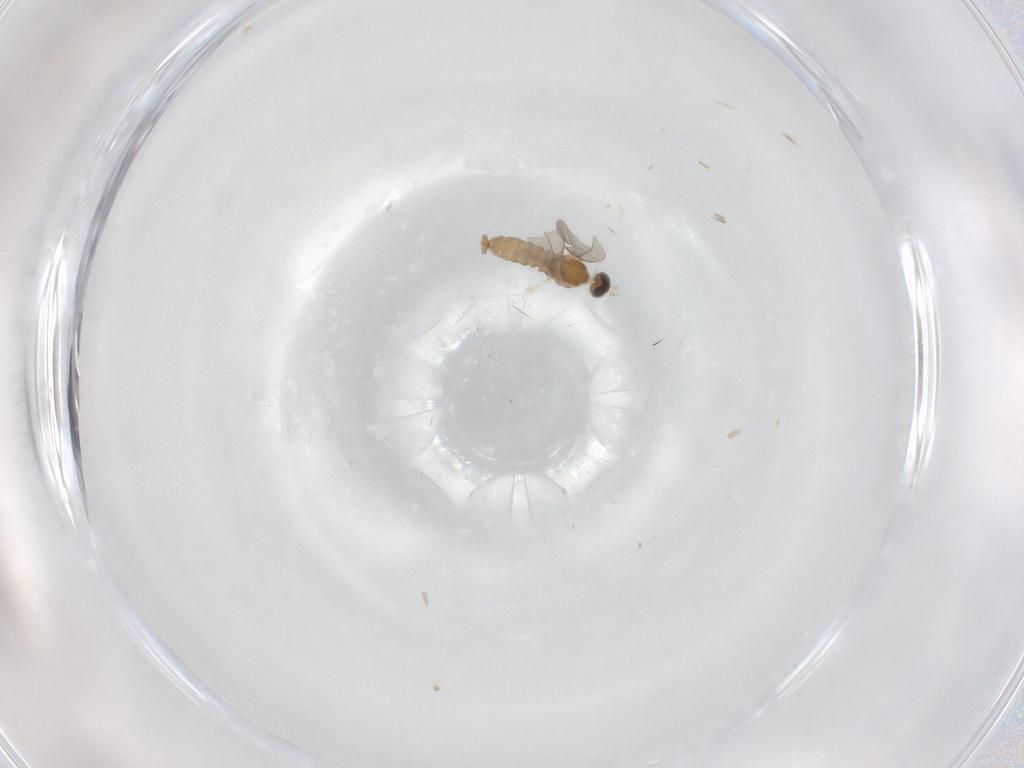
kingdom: Animalia
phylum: Arthropoda
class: Insecta
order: Diptera
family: Cecidomyiidae
